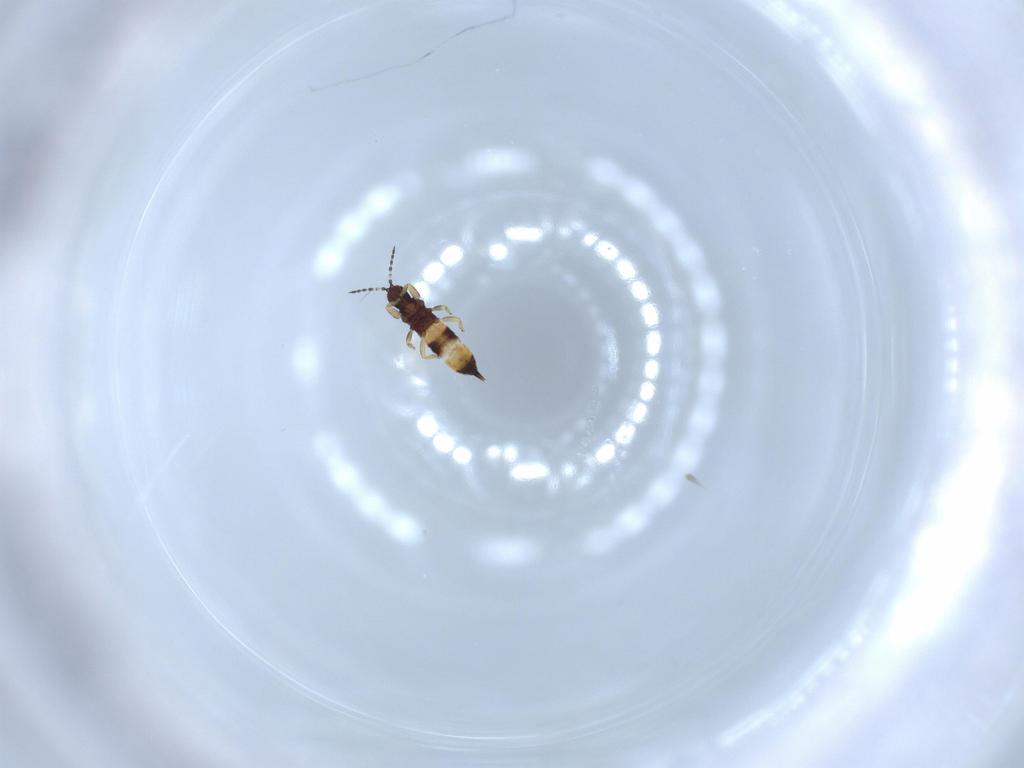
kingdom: Animalia
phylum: Arthropoda
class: Insecta
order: Thysanoptera
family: Phlaeothripidae
